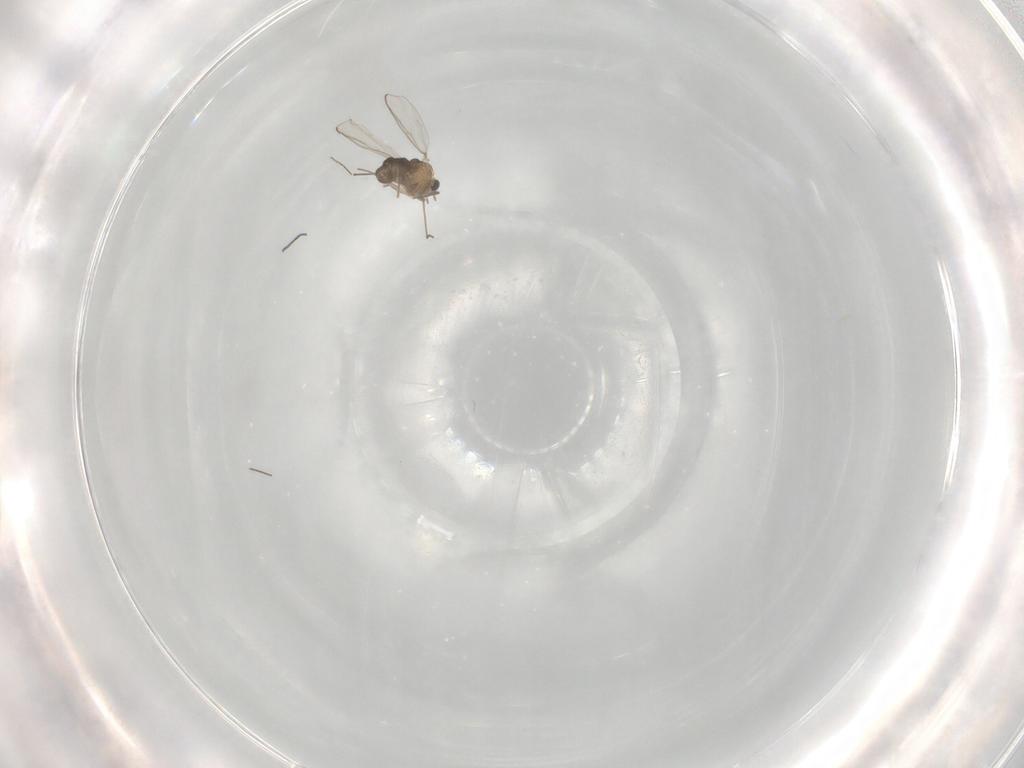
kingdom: Animalia
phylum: Arthropoda
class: Insecta
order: Diptera
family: Chironomidae
